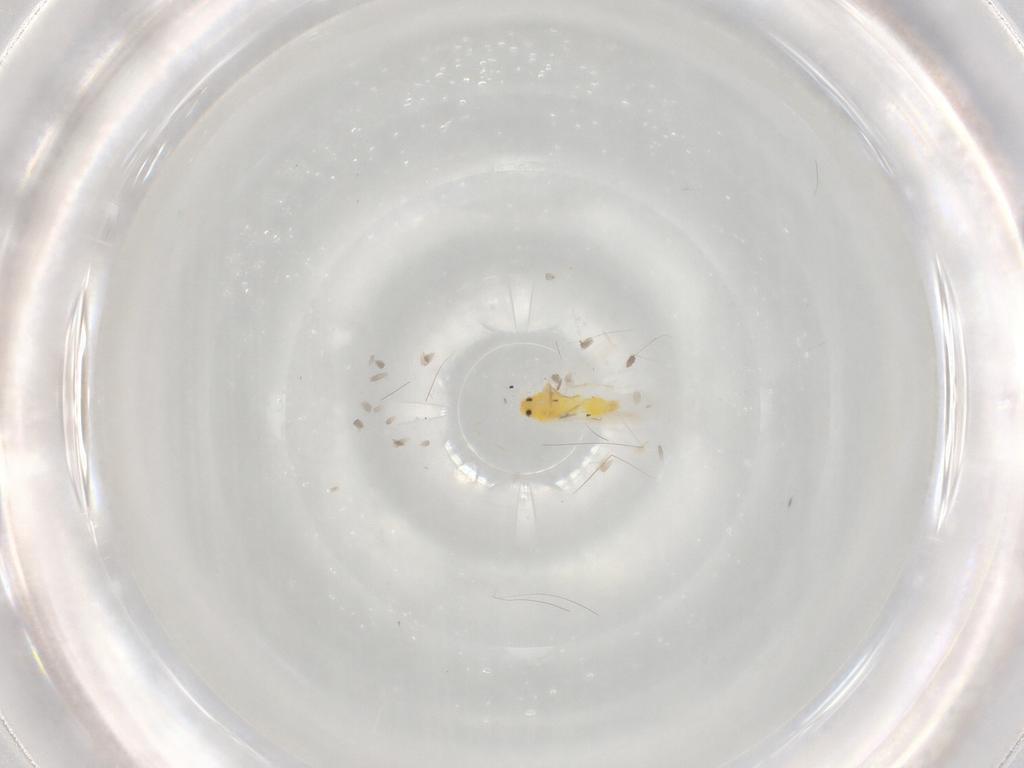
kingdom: Animalia
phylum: Arthropoda
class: Insecta
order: Hemiptera
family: Aleyrodidae
